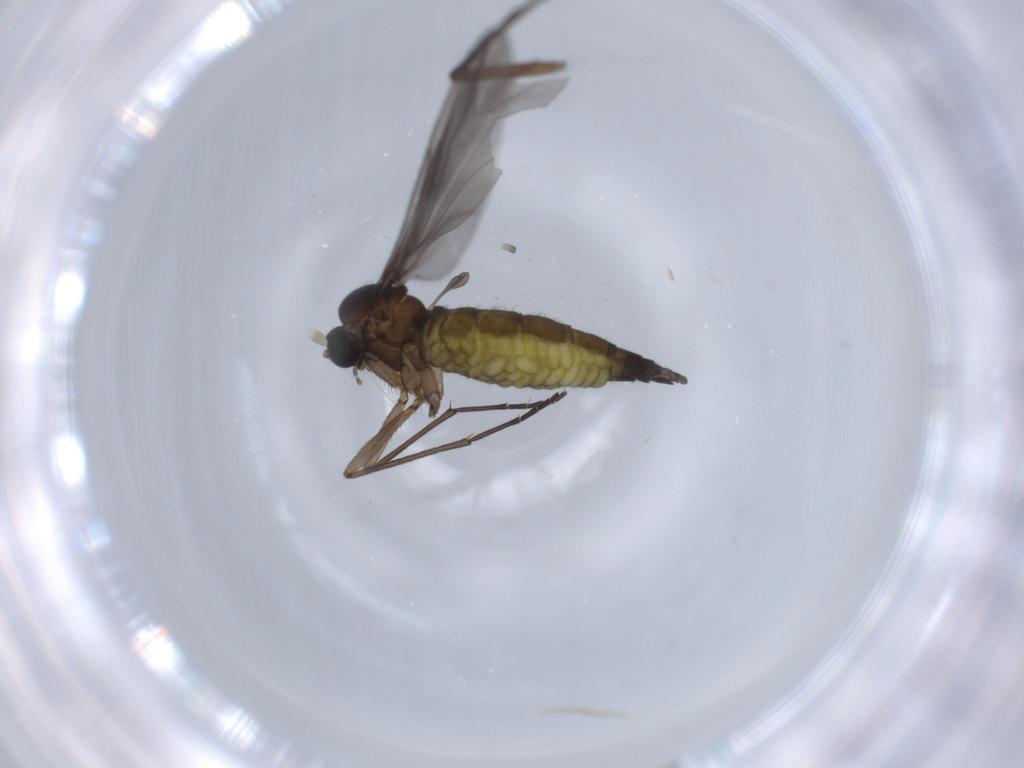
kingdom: Animalia
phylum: Arthropoda
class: Insecta
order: Diptera
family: Sciaridae
